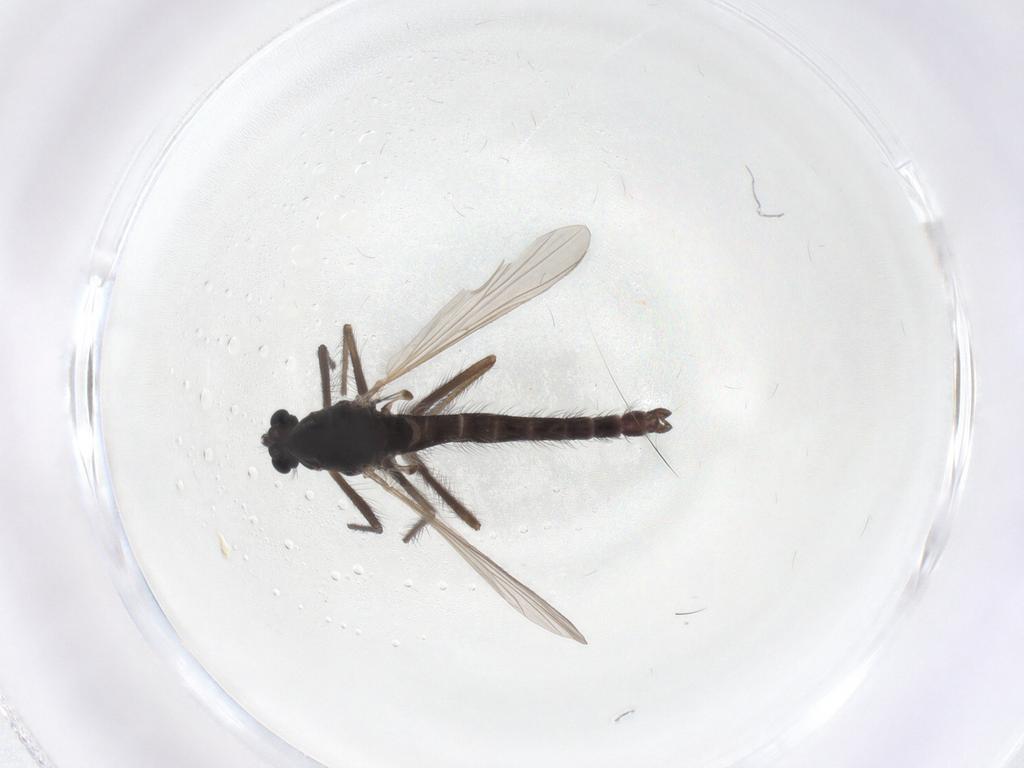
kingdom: Animalia
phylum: Arthropoda
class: Insecta
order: Diptera
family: Chironomidae
